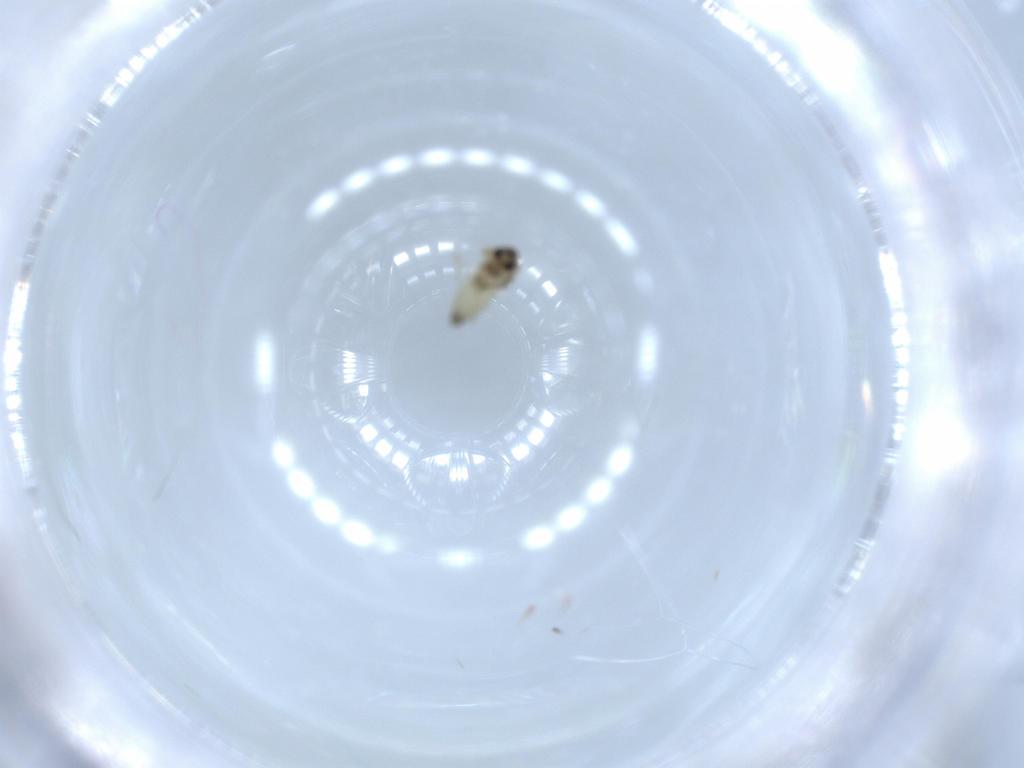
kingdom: Animalia
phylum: Arthropoda
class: Insecta
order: Diptera
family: Chironomidae
